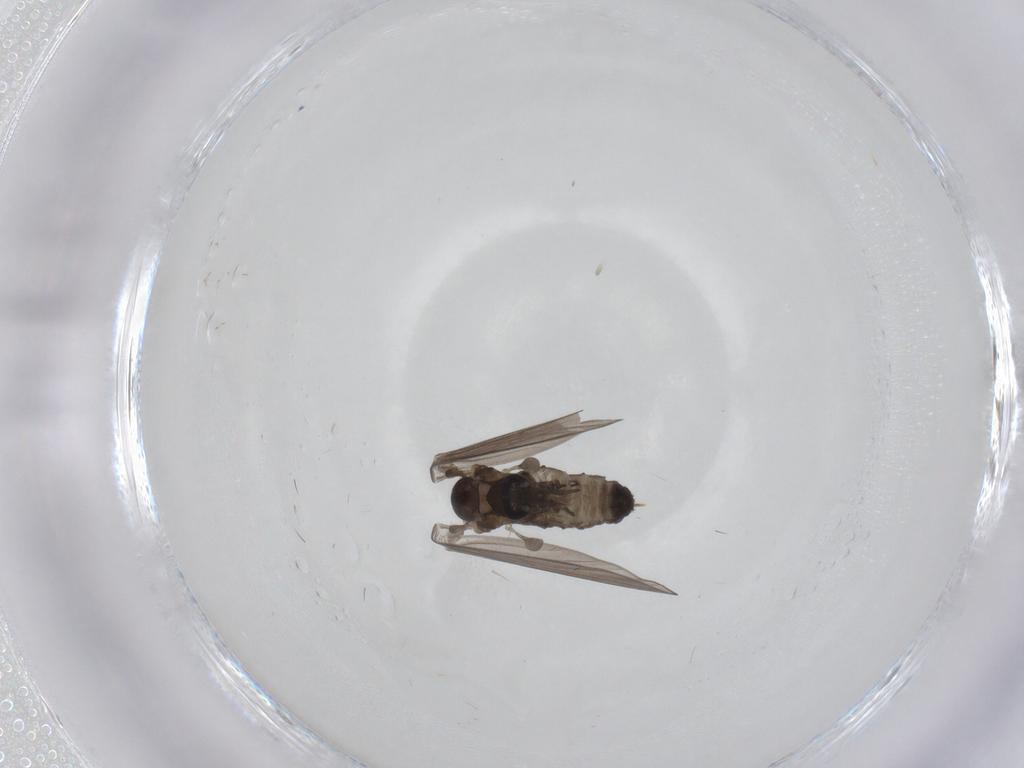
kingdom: Animalia
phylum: Arthropoda
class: Insecta
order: Diptera
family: Psychodidae
